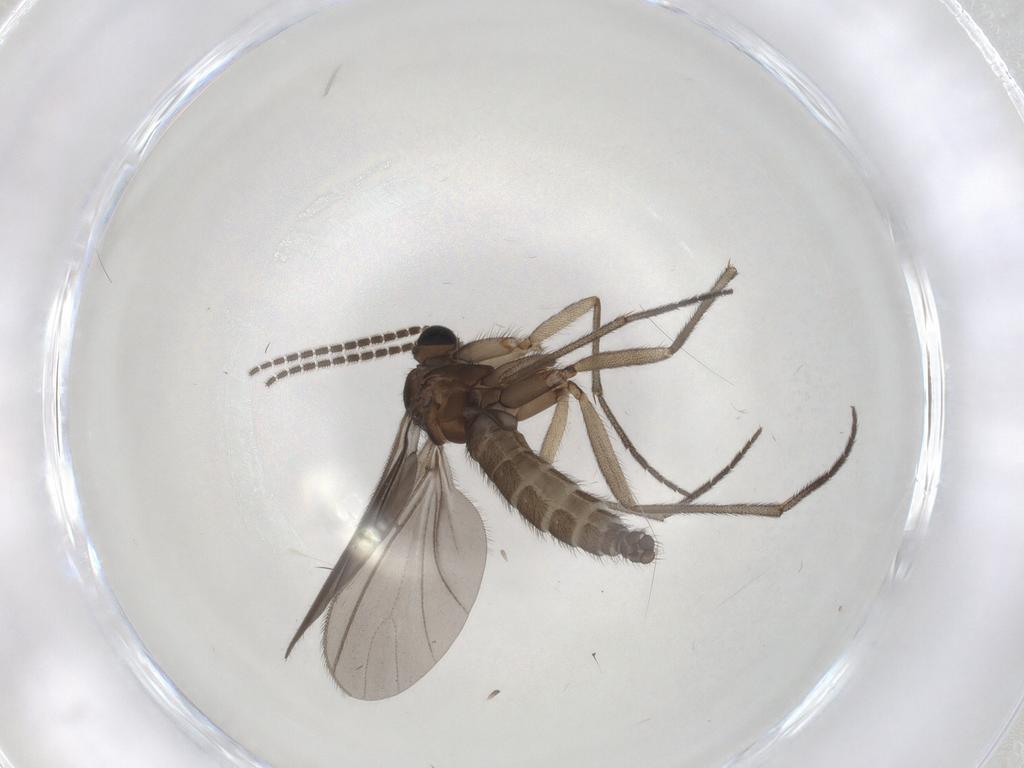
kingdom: Animalia
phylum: Arthropoda
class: Insecta
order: Diptera
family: Sciaridae
